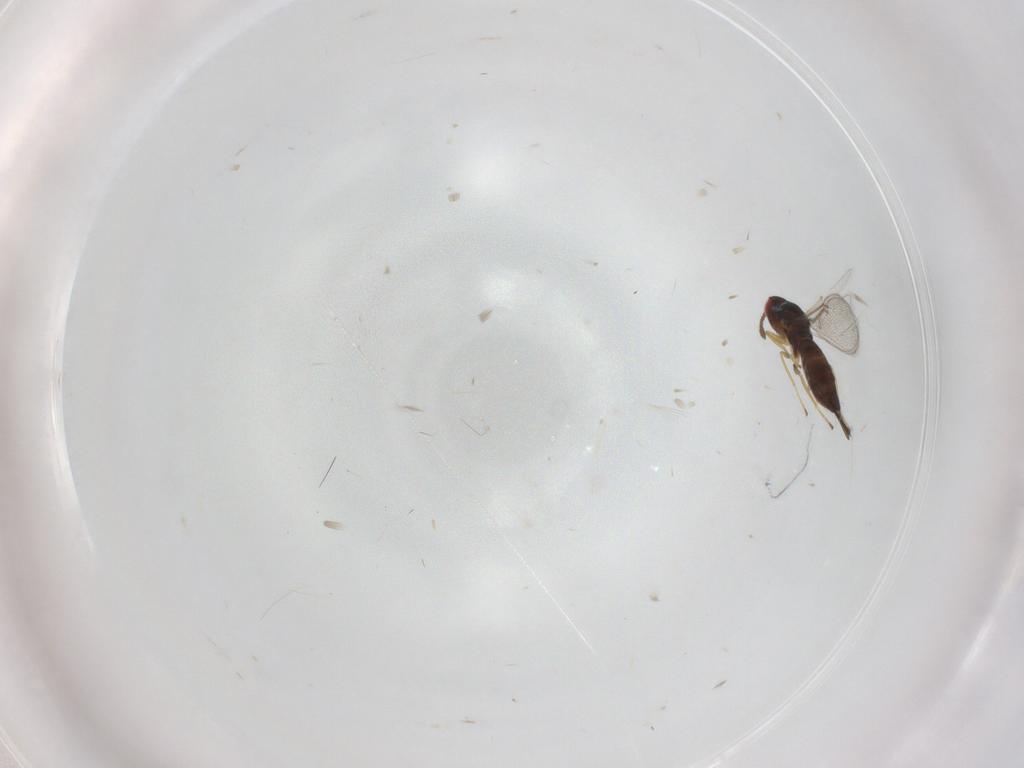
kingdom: Animalia
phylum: Arthropoda
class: Insecta
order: Hymenoptera
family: Eulophidae
